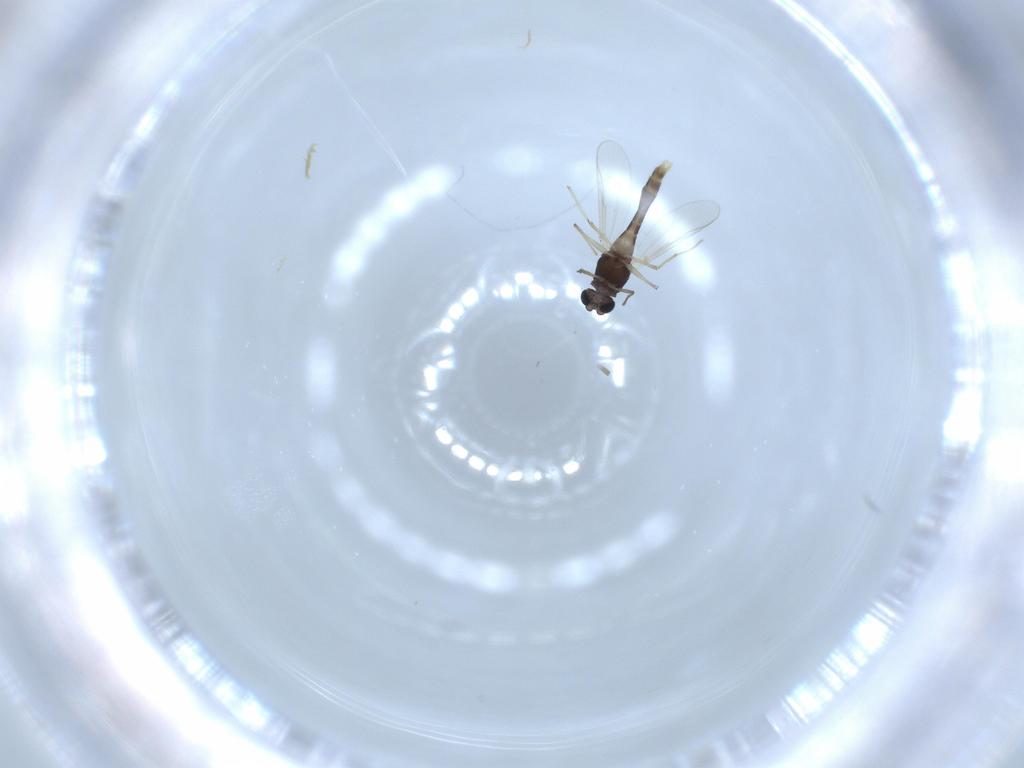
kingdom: Animalia
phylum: Arthropoda
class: Insecta
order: Diptera
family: Chironomidae
